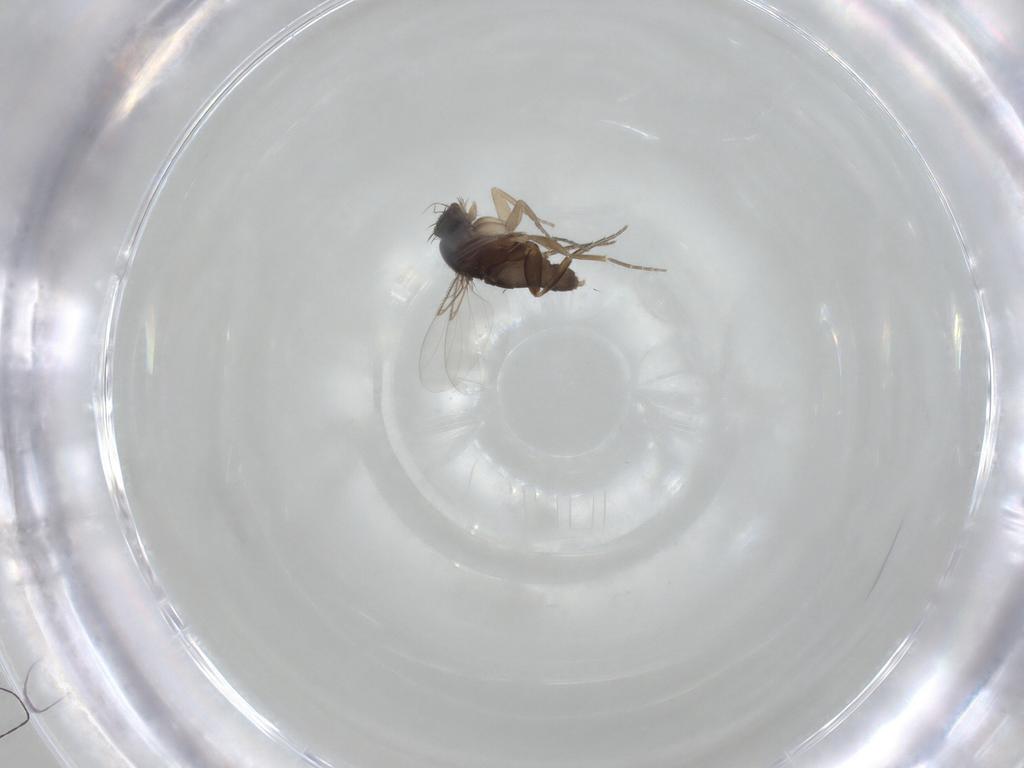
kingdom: Animalia
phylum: Arthropoda
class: Insecta
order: Diptera
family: Phoridae
